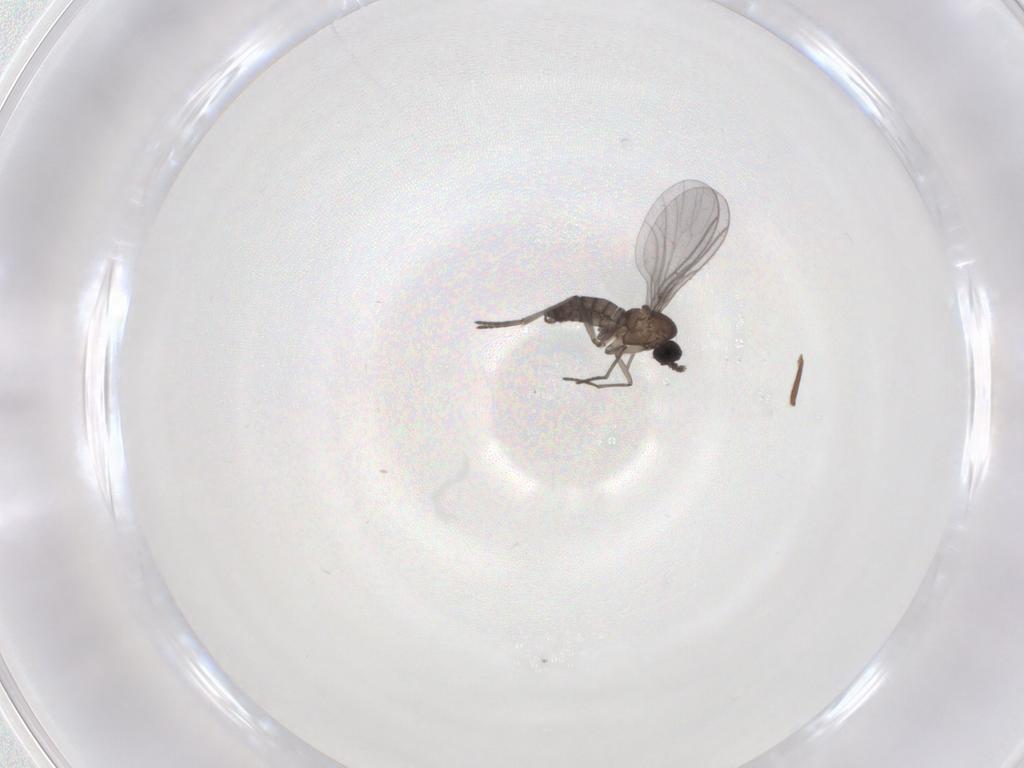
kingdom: Animalia
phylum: Arthropoda
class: Insecta
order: Diptera
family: Sciaridae
